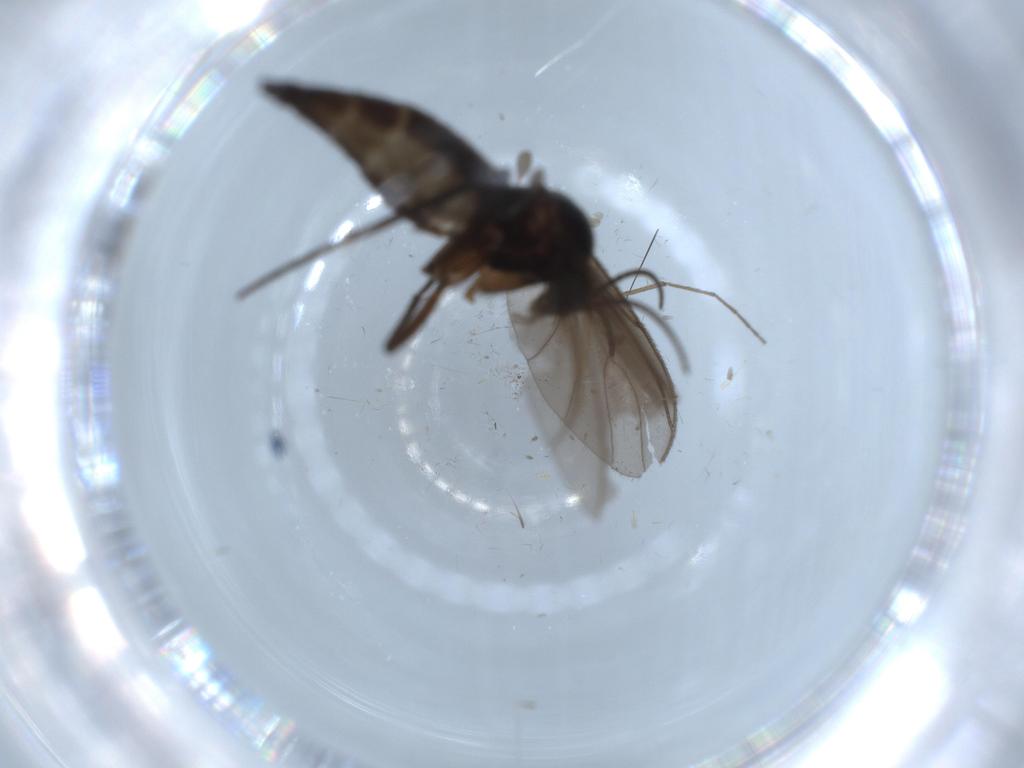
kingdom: Animalia
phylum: Arthropoda
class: Insecta
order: Diptera
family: Sciaridae
